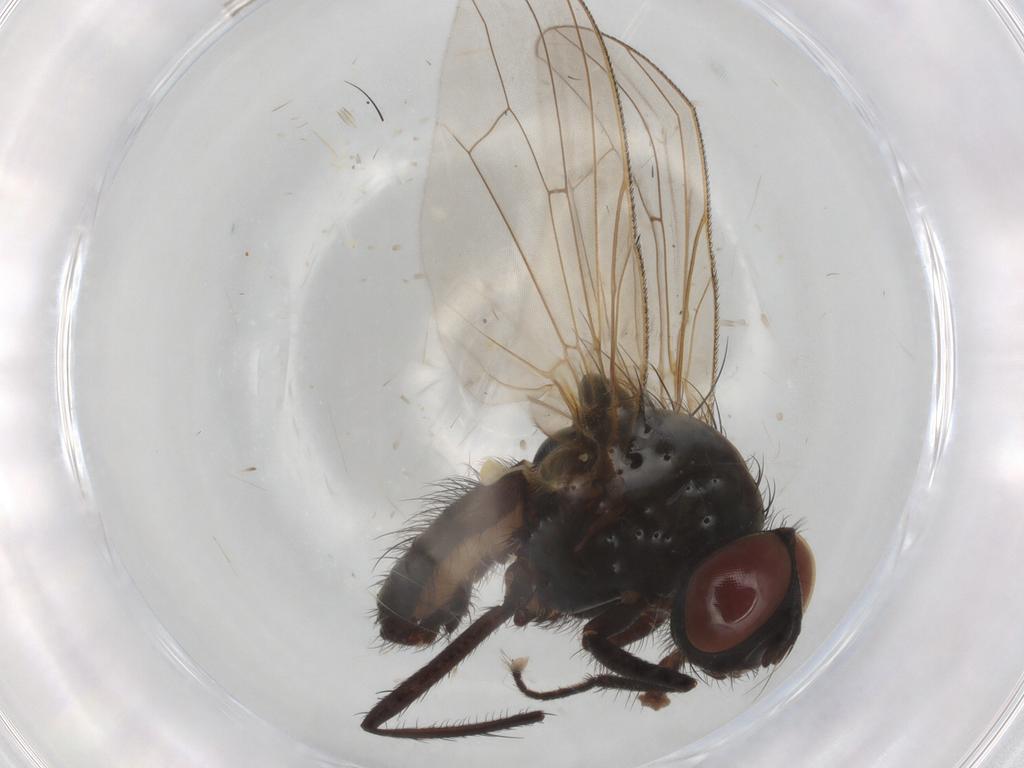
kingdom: Animalia
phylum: Arthropoda
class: Insecta
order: Diptera
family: Anthomyiidae
